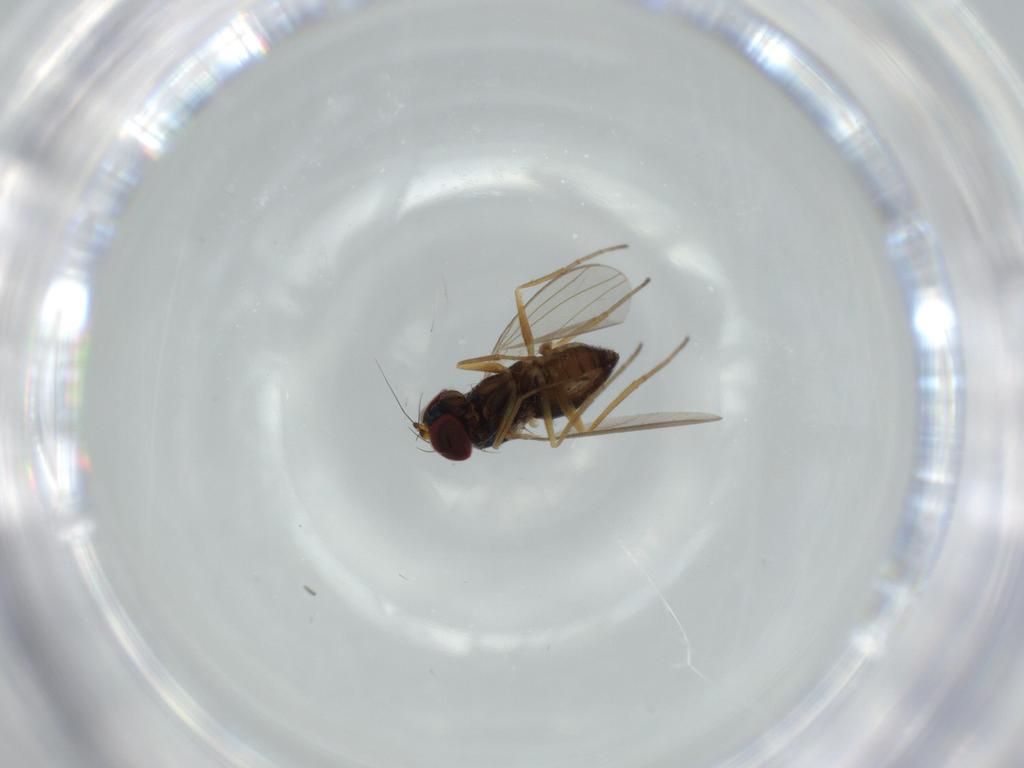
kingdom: Animalia
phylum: Arthropoda
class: Insecta
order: Diptera
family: Dolichopodidae
